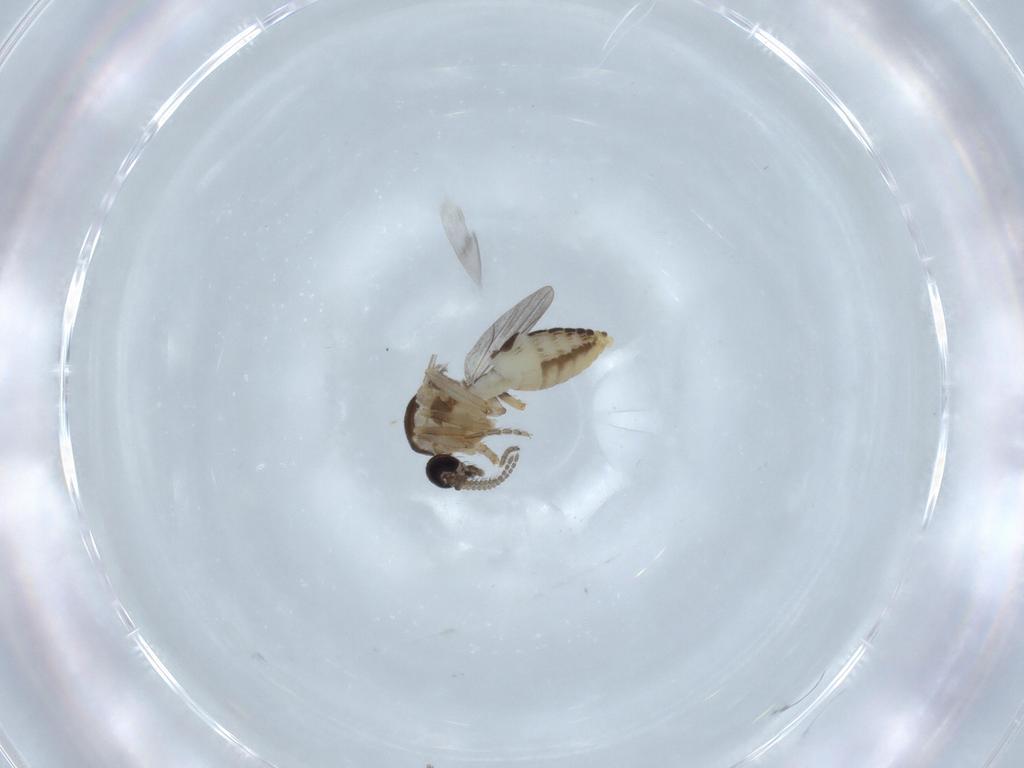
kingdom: Animalia
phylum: Arthropoda
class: Insecta
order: Diptera
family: Ceratopogonidae
